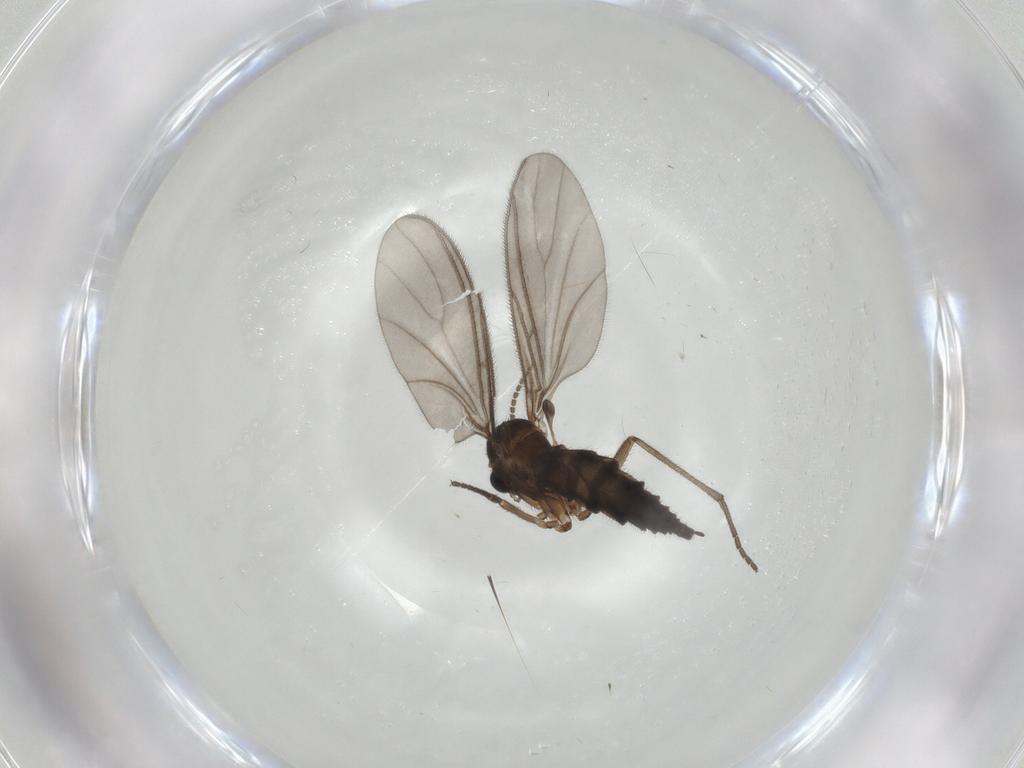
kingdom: Animalia
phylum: Arthropoda
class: Insecta
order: Diptera
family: Sciaridae
